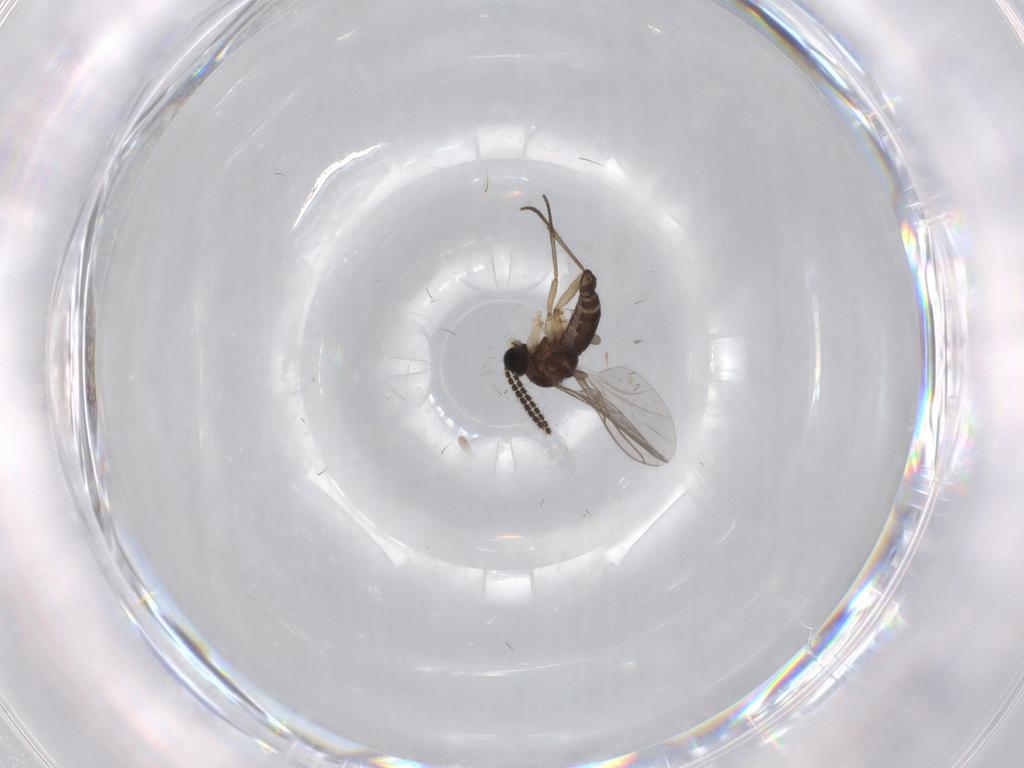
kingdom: Animalia
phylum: Arthropoda
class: Insecta
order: Diptera
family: Sciaridae
